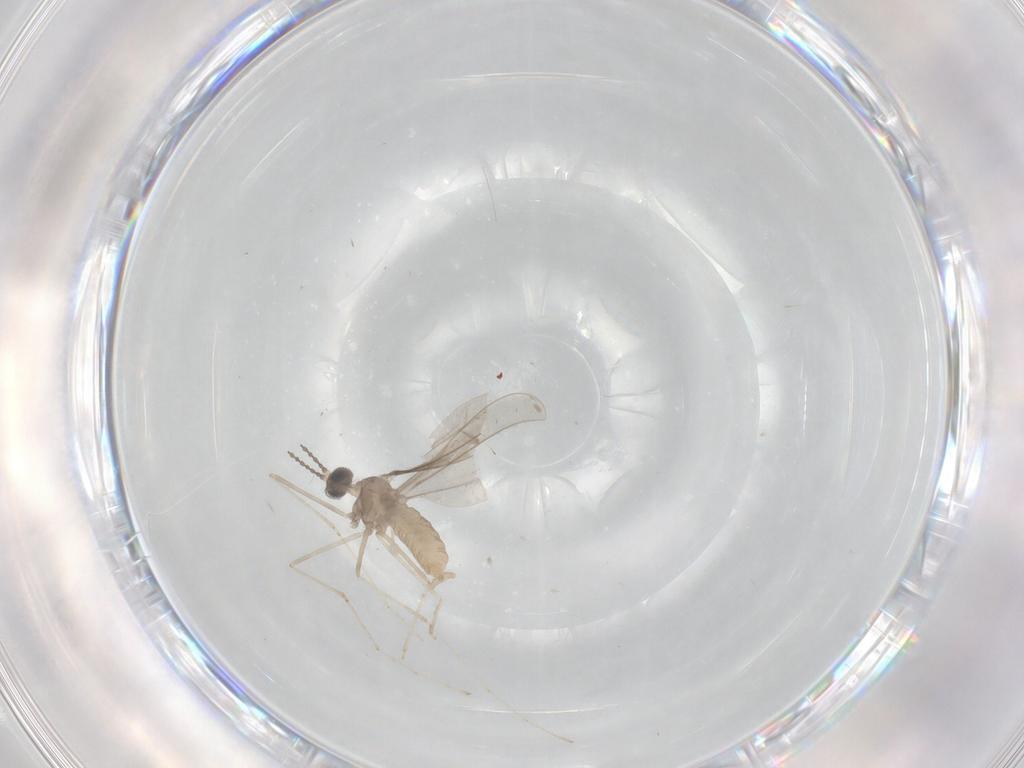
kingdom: Animalia
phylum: Arthropoda
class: Insecta
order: Diptera
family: Cecidomyiidae
